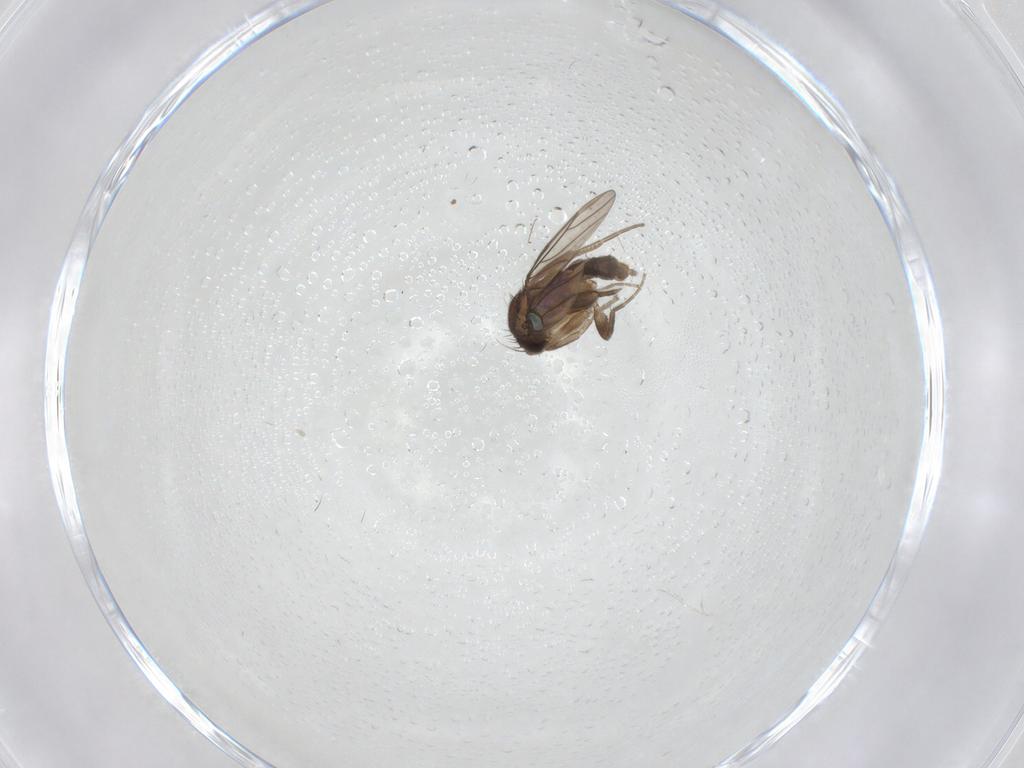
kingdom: Animalia
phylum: Arthropoda
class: Insecta
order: Diptera
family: Phoridae
